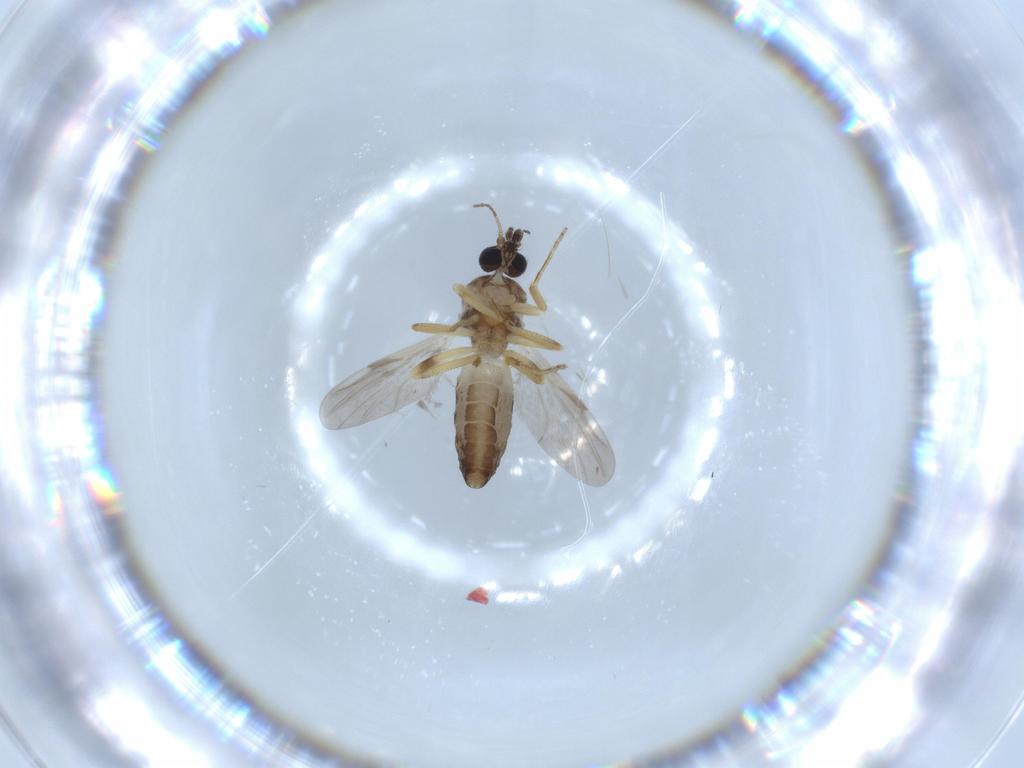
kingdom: Animalia
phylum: Arthropoda
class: Insecta
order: Diptera
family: Ceratopogonidae
